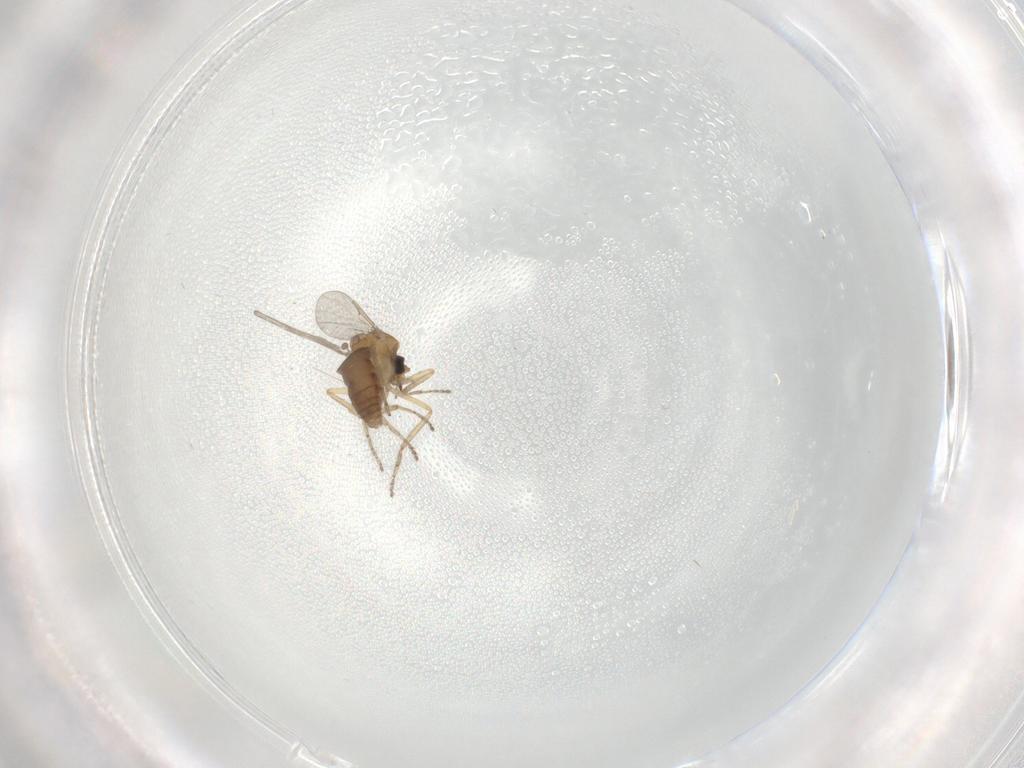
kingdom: Animalia
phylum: Arthropoda
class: Insecta
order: Diptera
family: Ceratopogonidae
